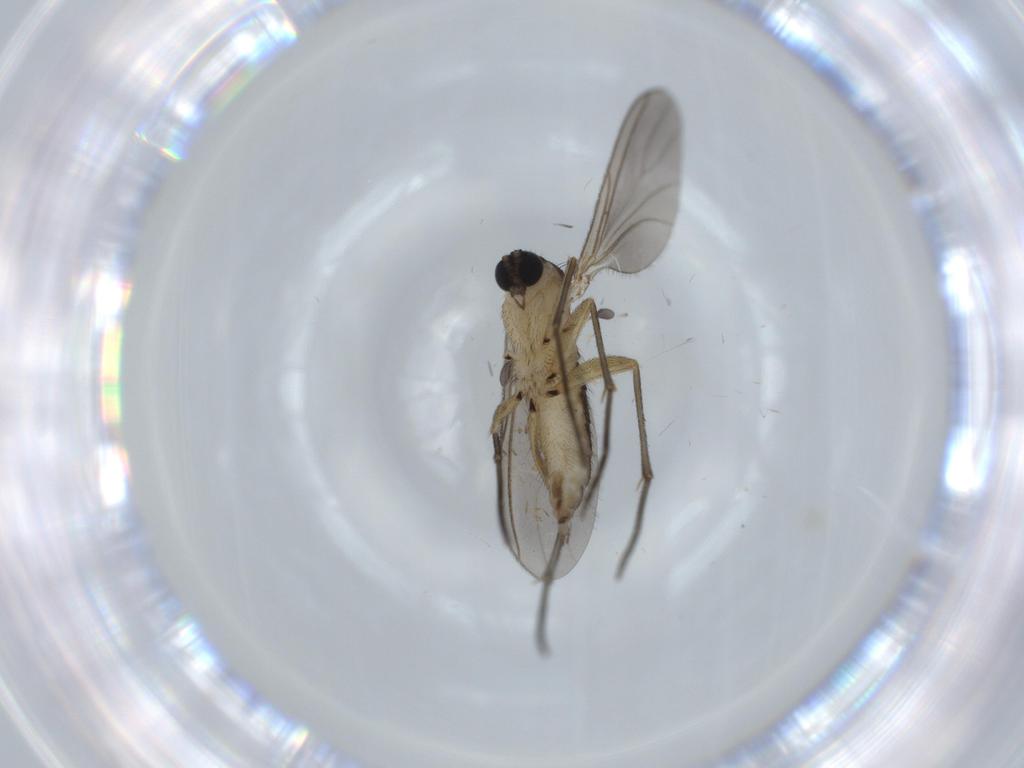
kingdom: Animalia
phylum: Arthropoda
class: Insecta
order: Diptera
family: Sciaridae
